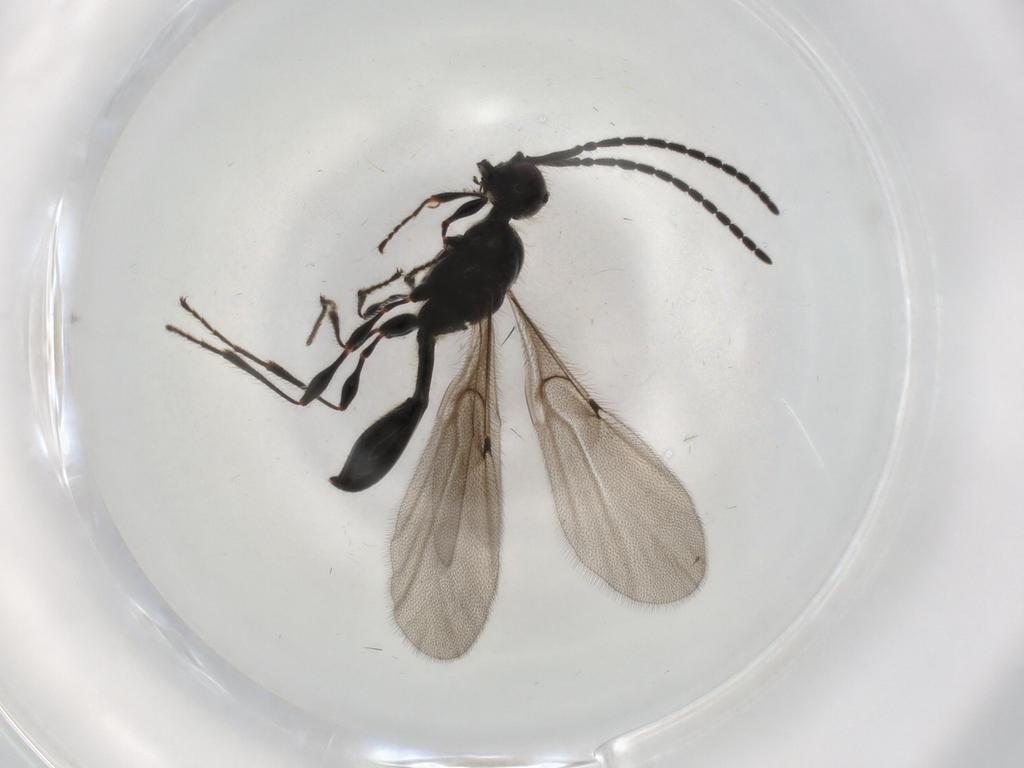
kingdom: Animalia
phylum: Arthropoda
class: Insecta
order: Hymenoptera
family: Diapriidae
